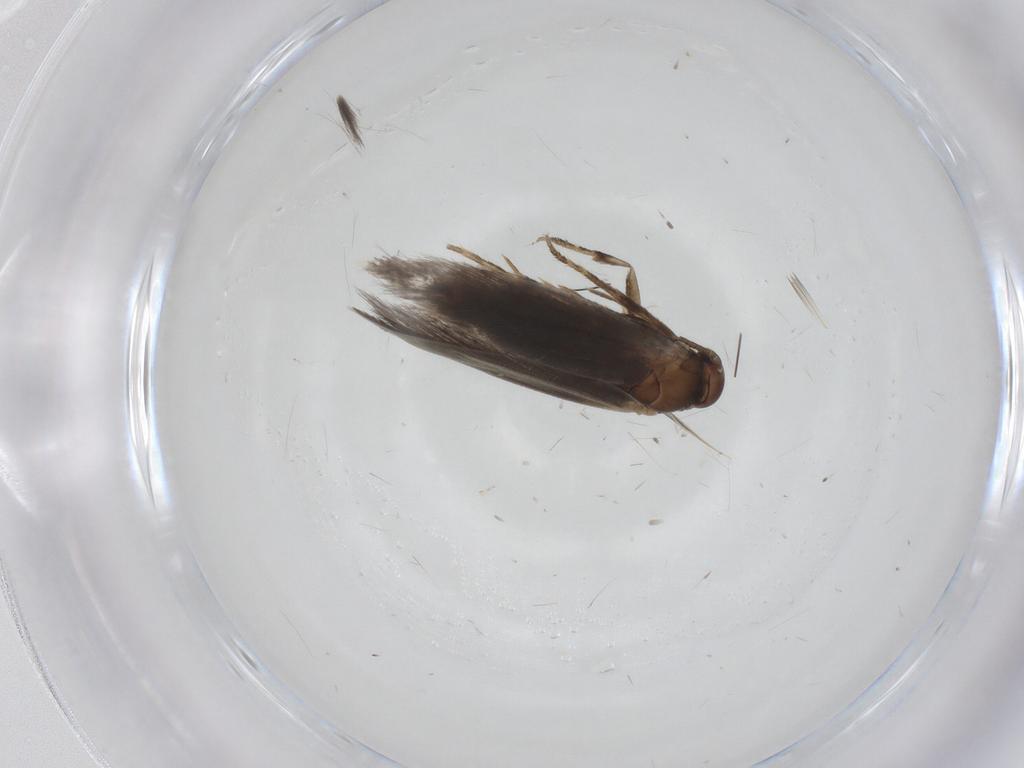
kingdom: Animalia
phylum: Arthropoda
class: Insecta
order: Lepidoptera
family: Elachistidae
